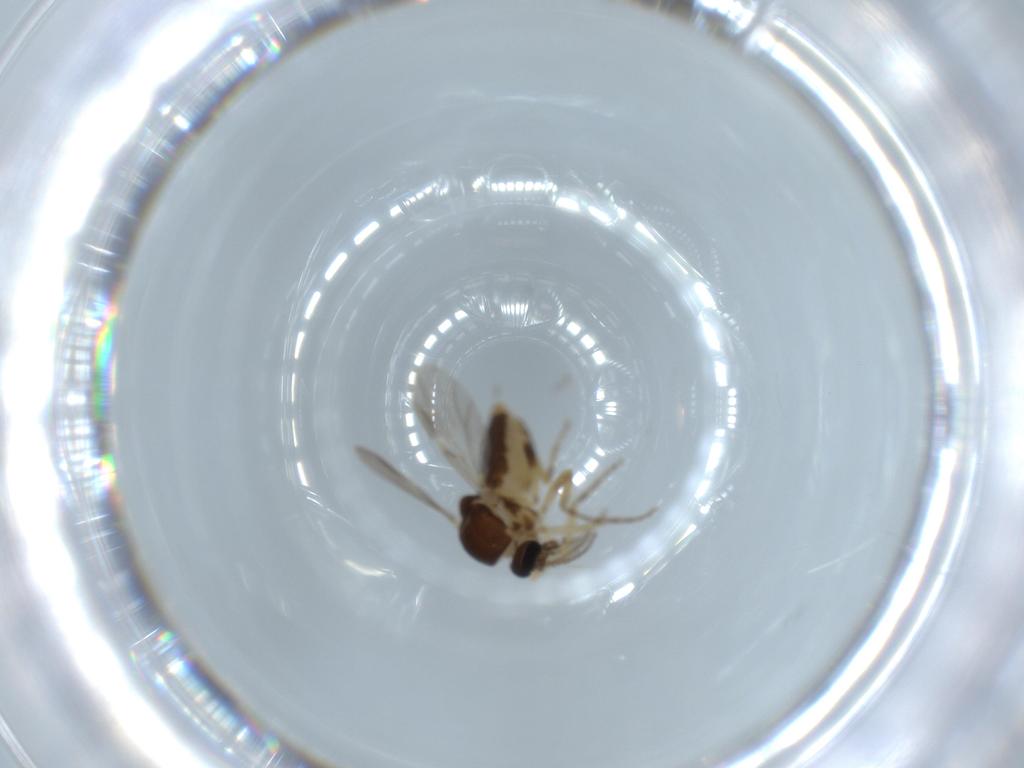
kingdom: Animalia
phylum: Arthropoda
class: Insecta
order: Diptera
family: Ceratopogonidae
